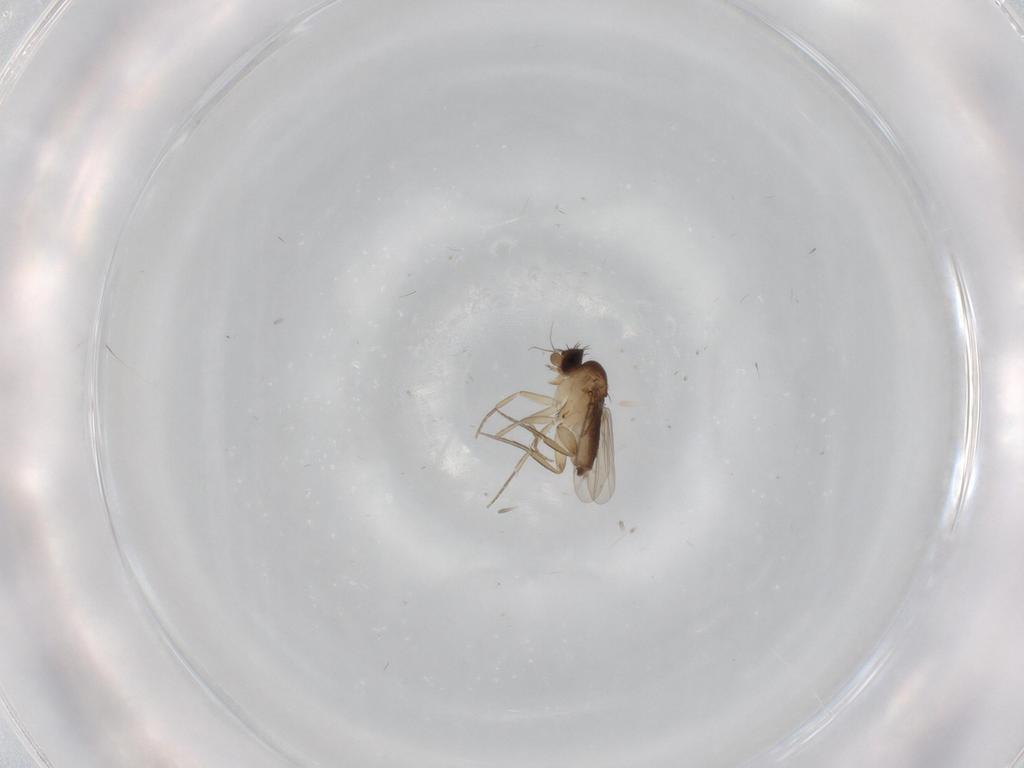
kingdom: Animalia
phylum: Arthropoda
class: Insecta
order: Diptera
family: Phoridae
